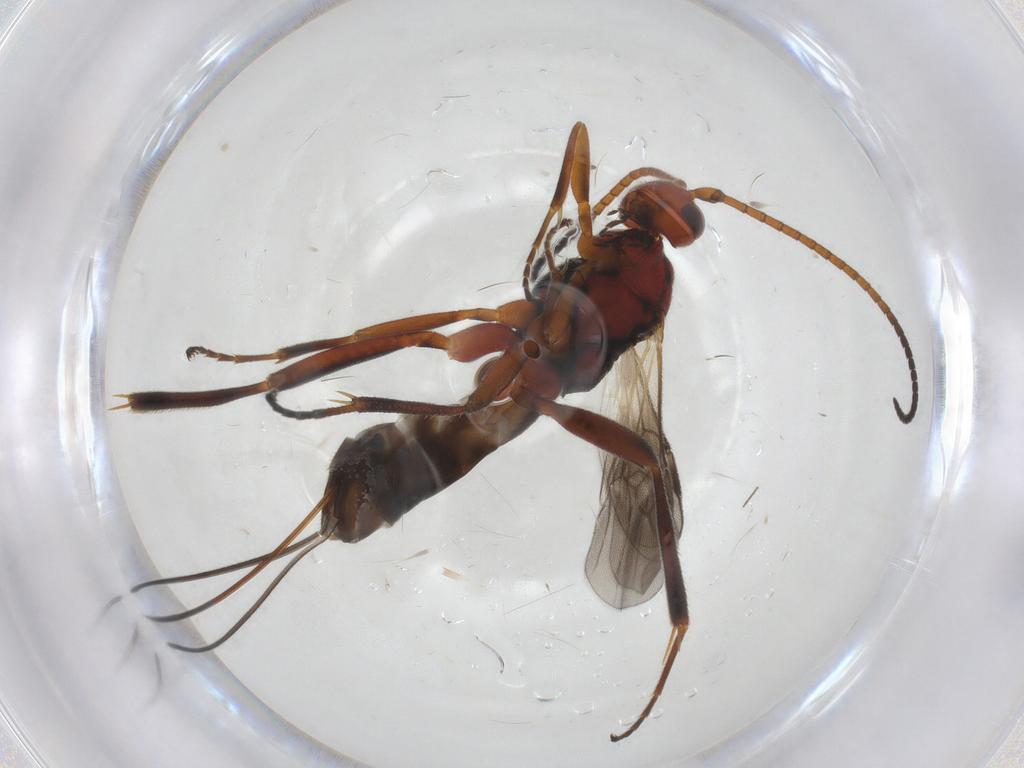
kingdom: Animalia
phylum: Arthropoda
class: Insecta
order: Hymenoptera
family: Braconidae
